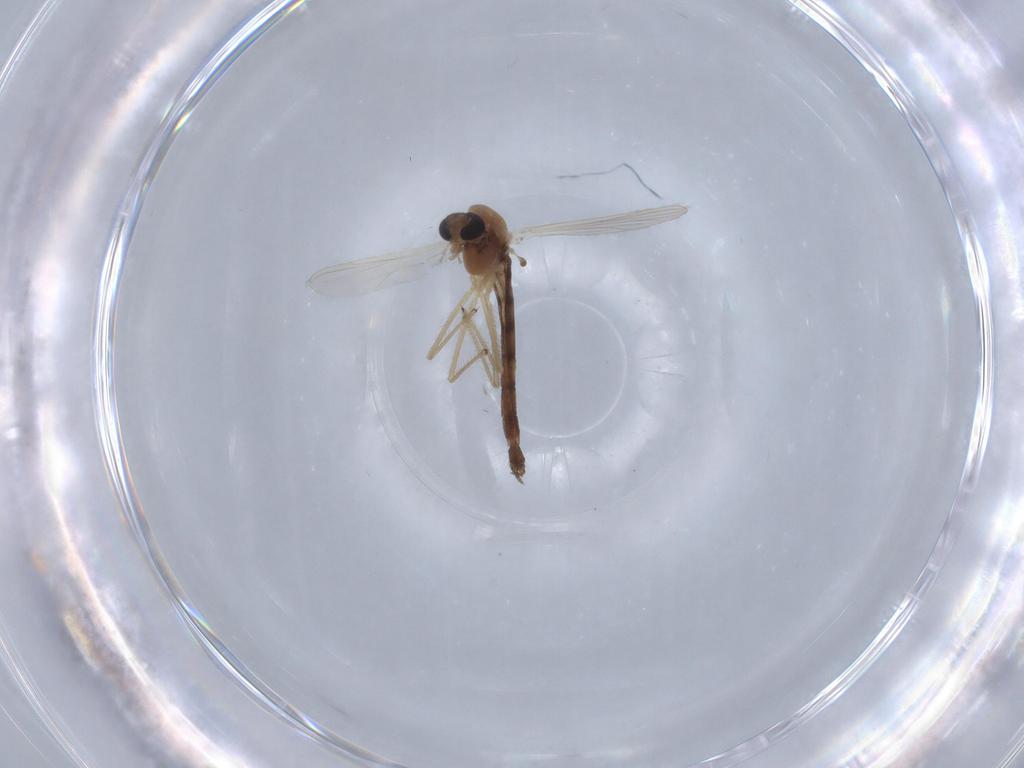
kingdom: Animalia
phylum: Arthropoda
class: Insecta
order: Diptera
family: Chironomidae
